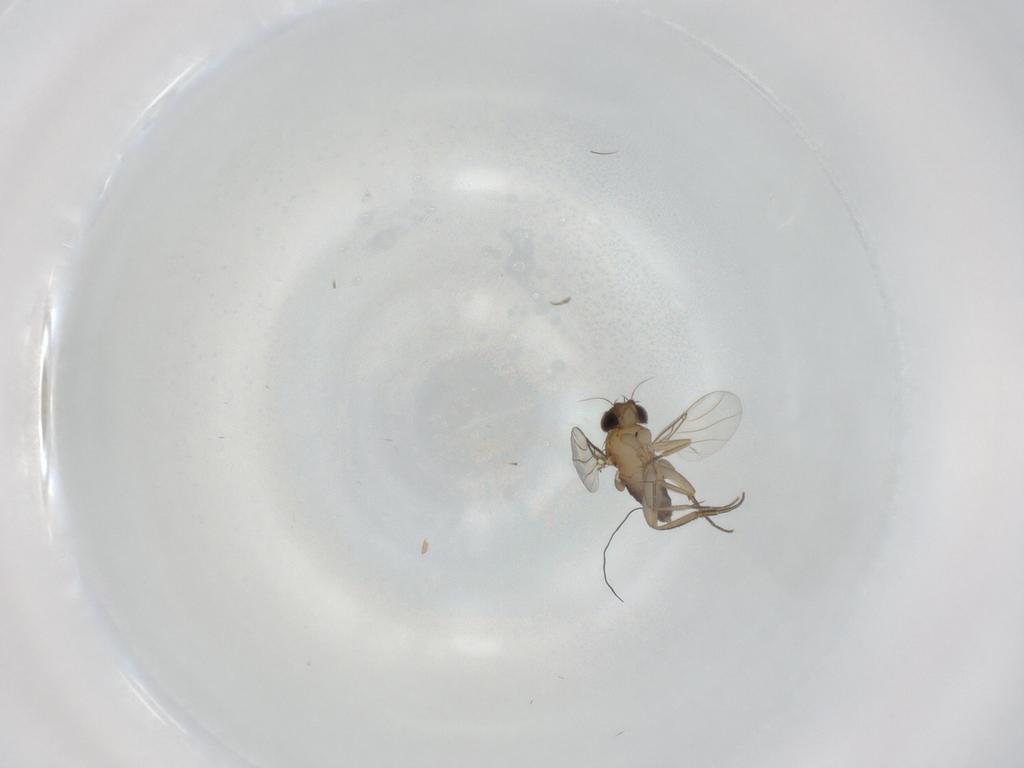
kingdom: Animalia
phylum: Arthropoda
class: Insecta
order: Diptera
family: Phoridae
